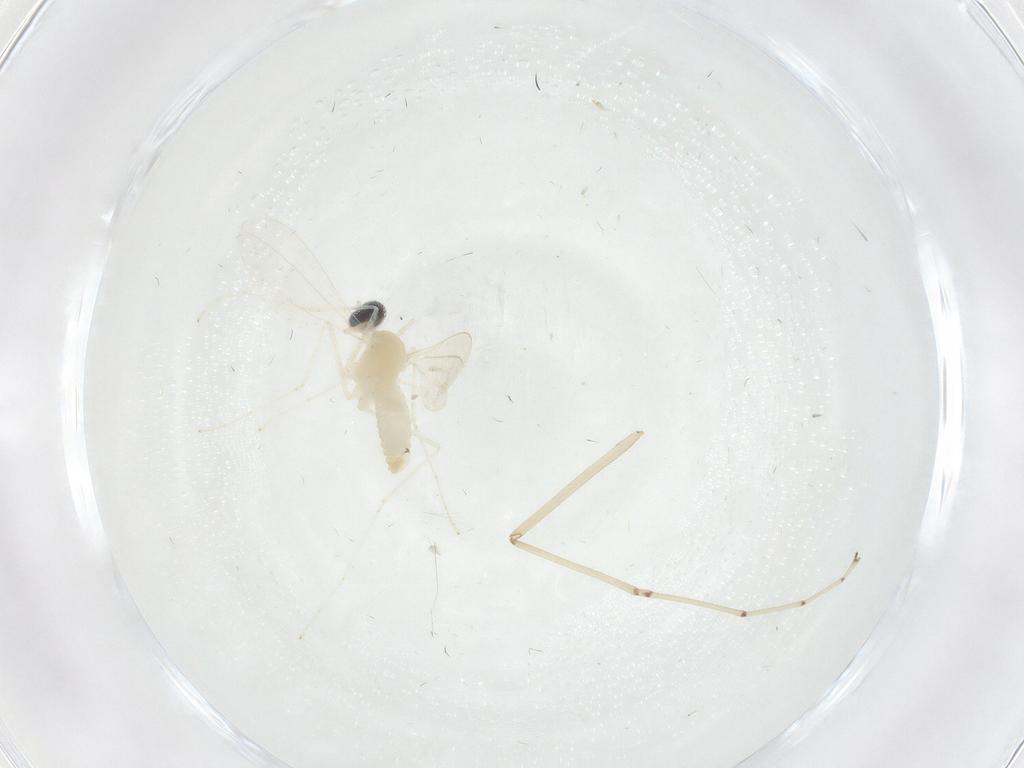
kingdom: Animalia
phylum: Arthropoda
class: Insecta
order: Diptera
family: Cecidomyiidae
